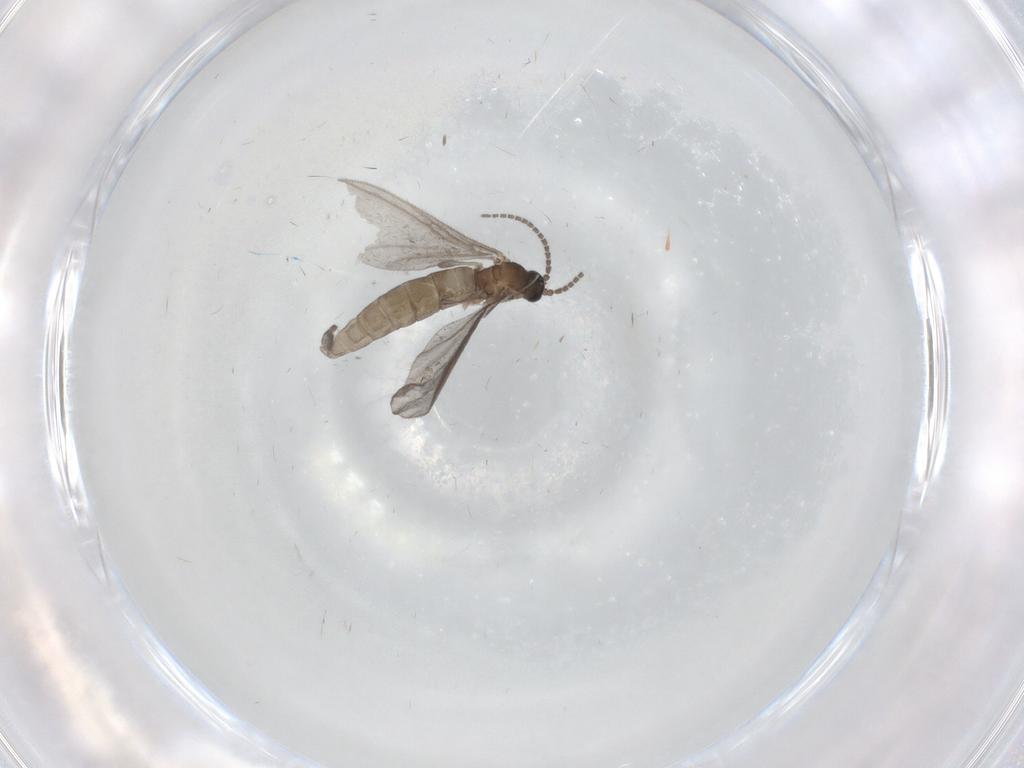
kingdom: Animalia
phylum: Arthropoda
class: Insecta
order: Diptera
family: Sciaridae
